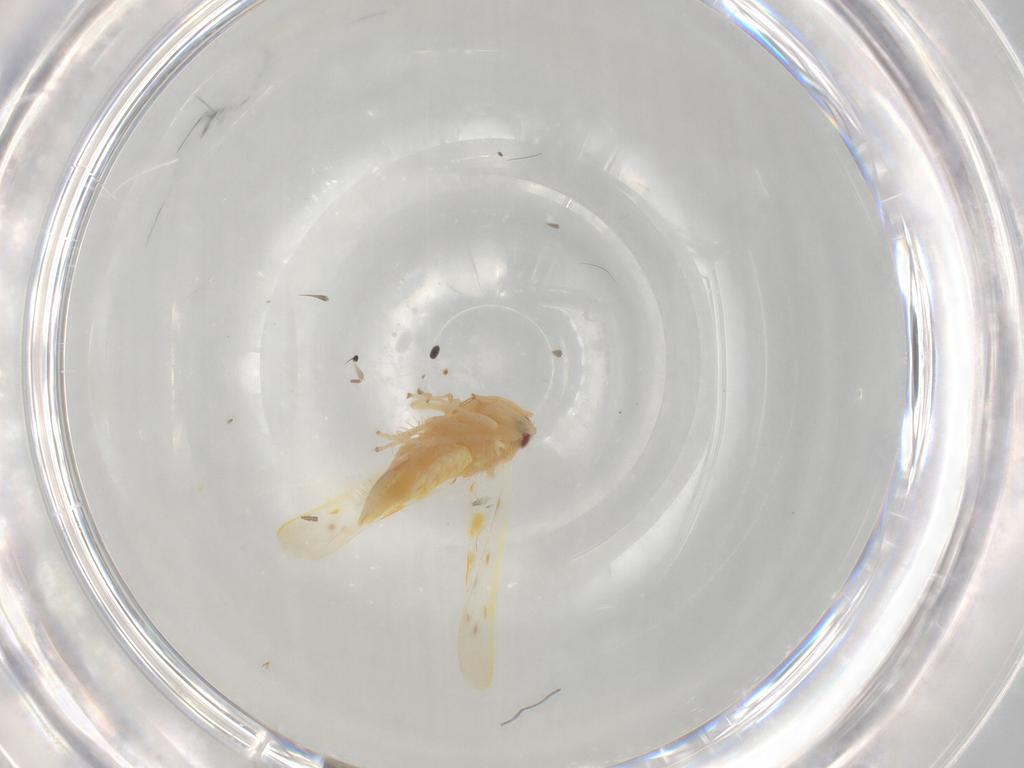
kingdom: Animalia
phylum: Arthropoda
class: Insecta
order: Hemiptera
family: Cicadellidae
